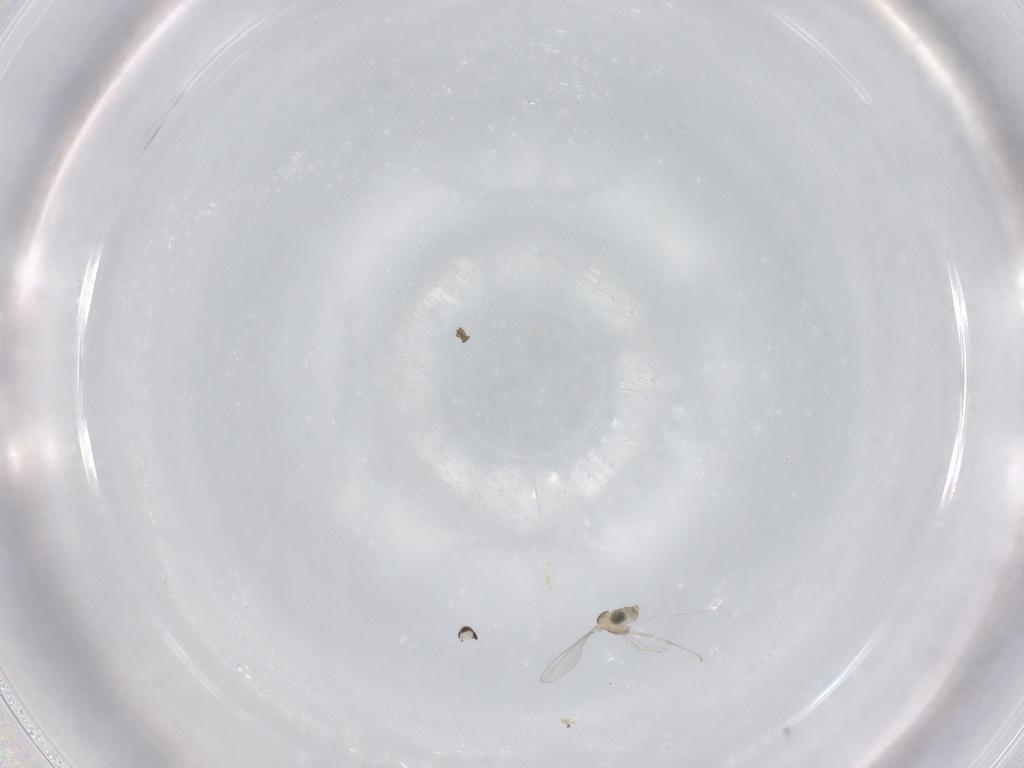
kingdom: Animalia
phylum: Arthropoda
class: Insecta
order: Diptera
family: Cecidomyiidae
